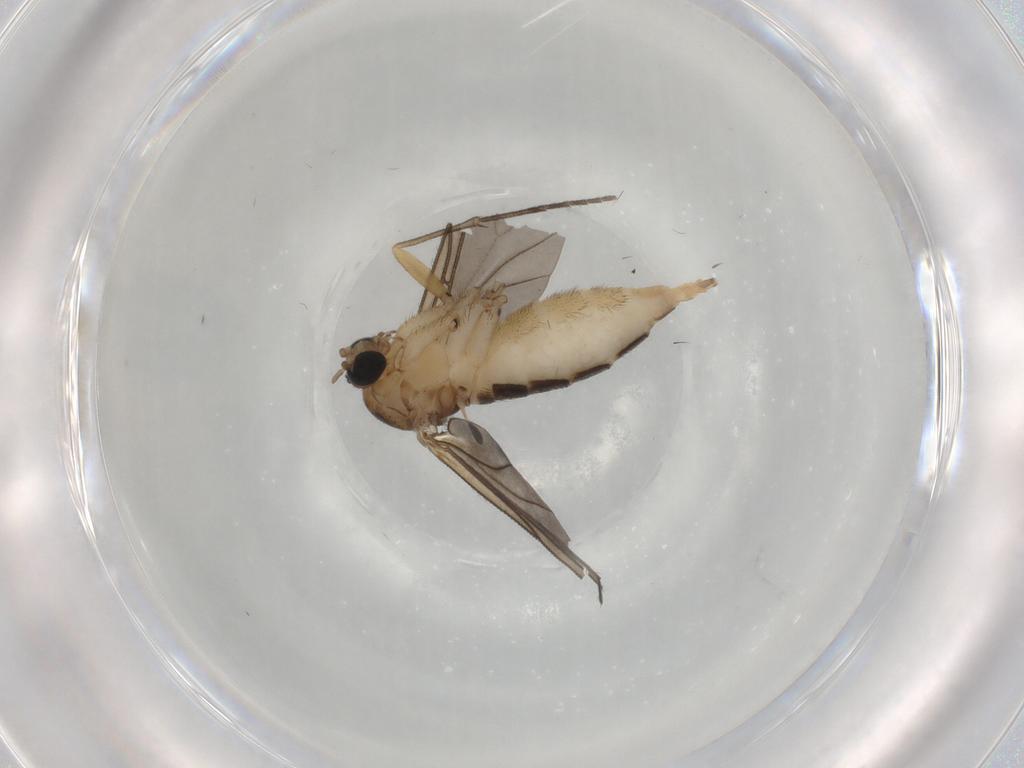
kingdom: Animalia
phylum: Arthropoda
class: Insecta
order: Diptera
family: Sciaridae
